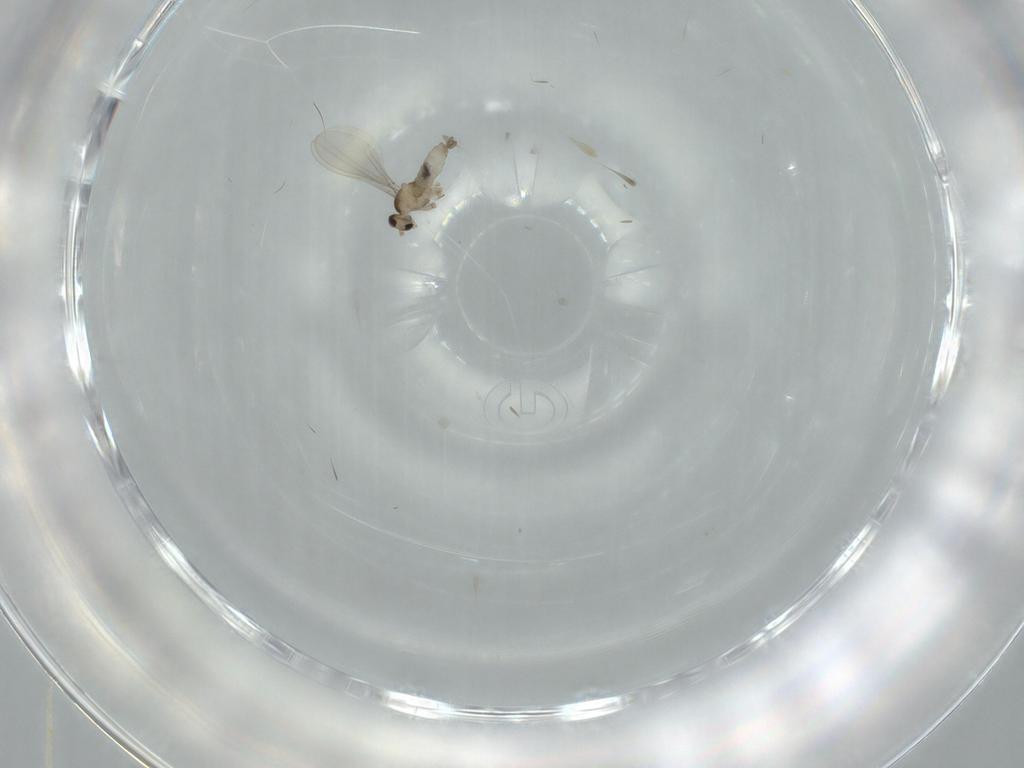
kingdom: Animalia
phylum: Arthropoda
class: Insecta
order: Diptera
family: Cecidomyiidae
